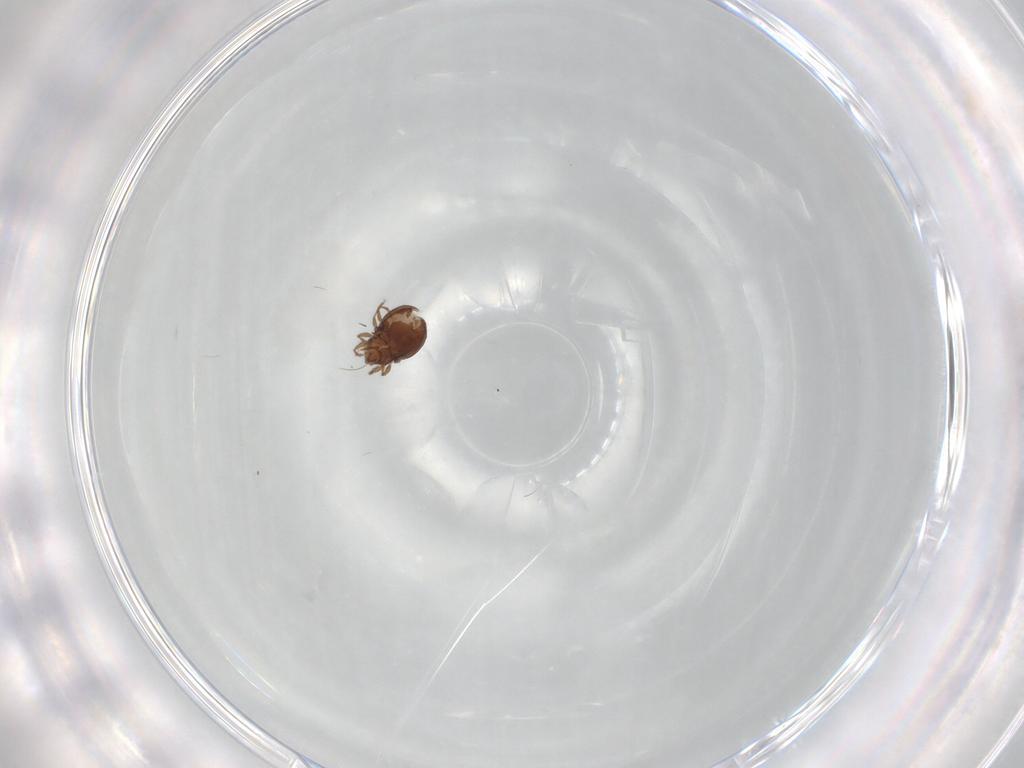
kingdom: Animalia
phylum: Arthropoda
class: Arachnida
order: Sarcoptiformes
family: Oribatulidae
